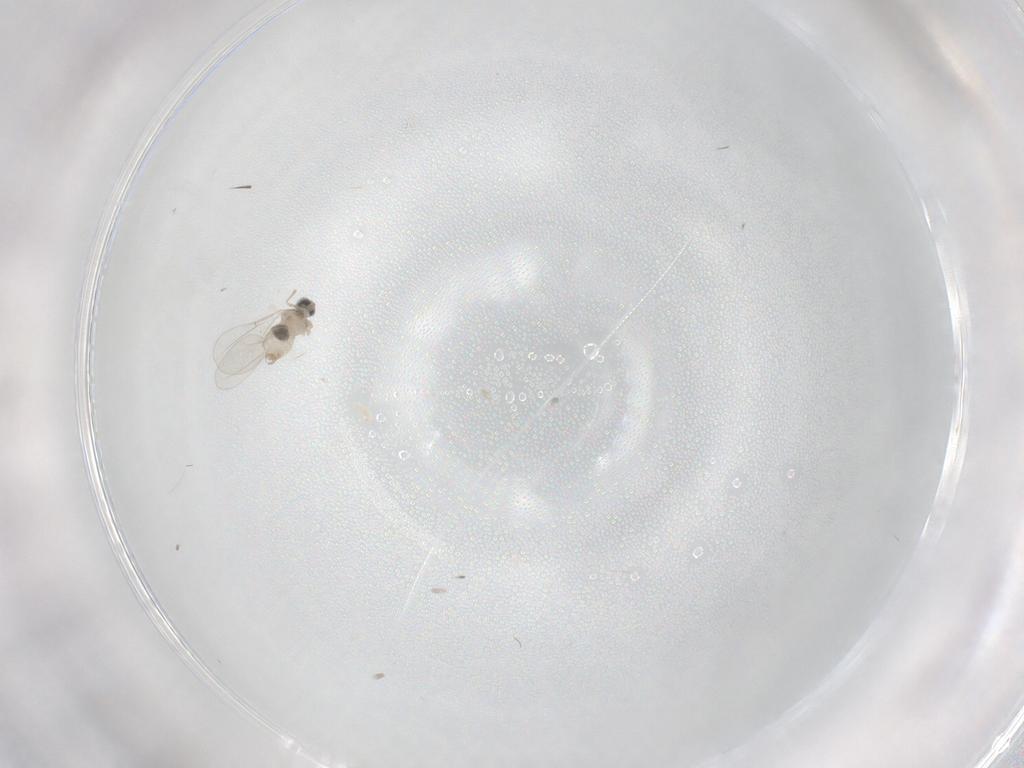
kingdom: Animalia
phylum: Arthropoda
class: Insecta
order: Diptera
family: Cecidomyiidae
